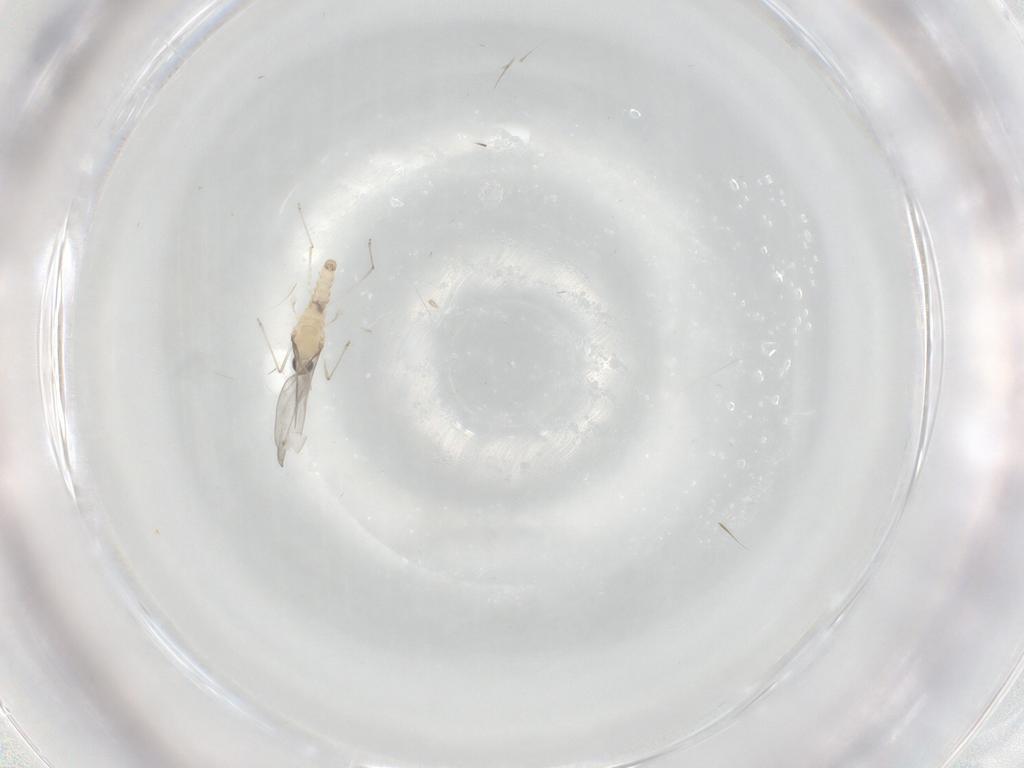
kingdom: Animalia
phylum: Arthropoda
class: Insecta
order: Diptera
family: Cecidomyiidae
